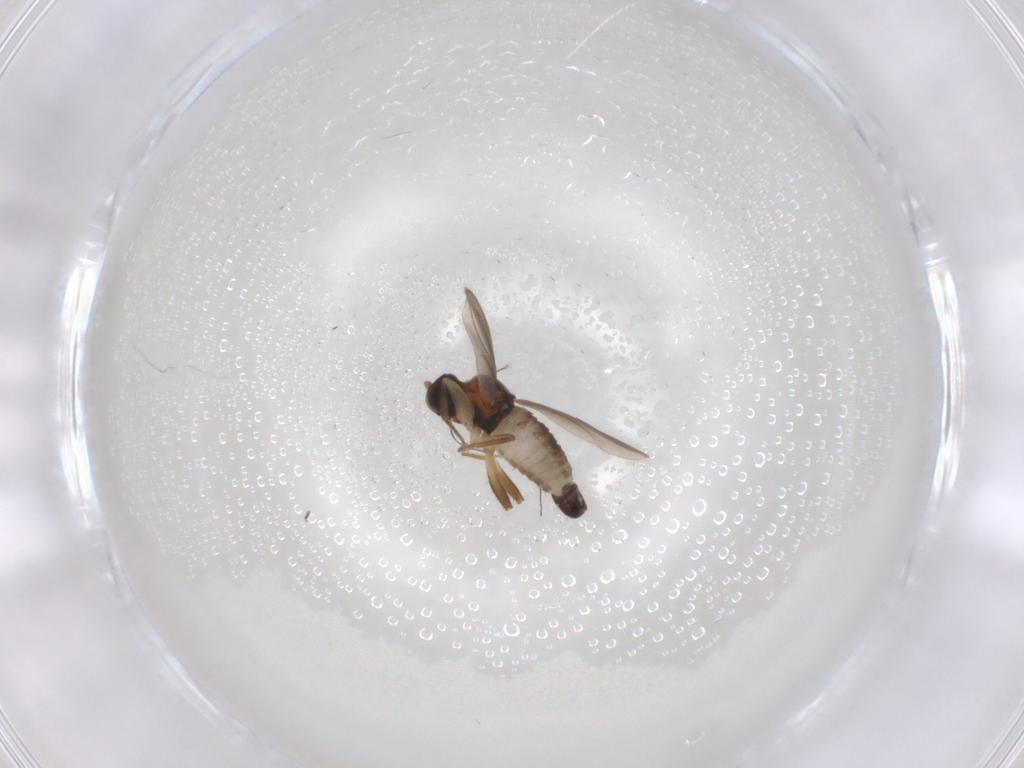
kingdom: Animalia
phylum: Arthropoda
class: Insecta
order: Diptera
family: Hybotidae
